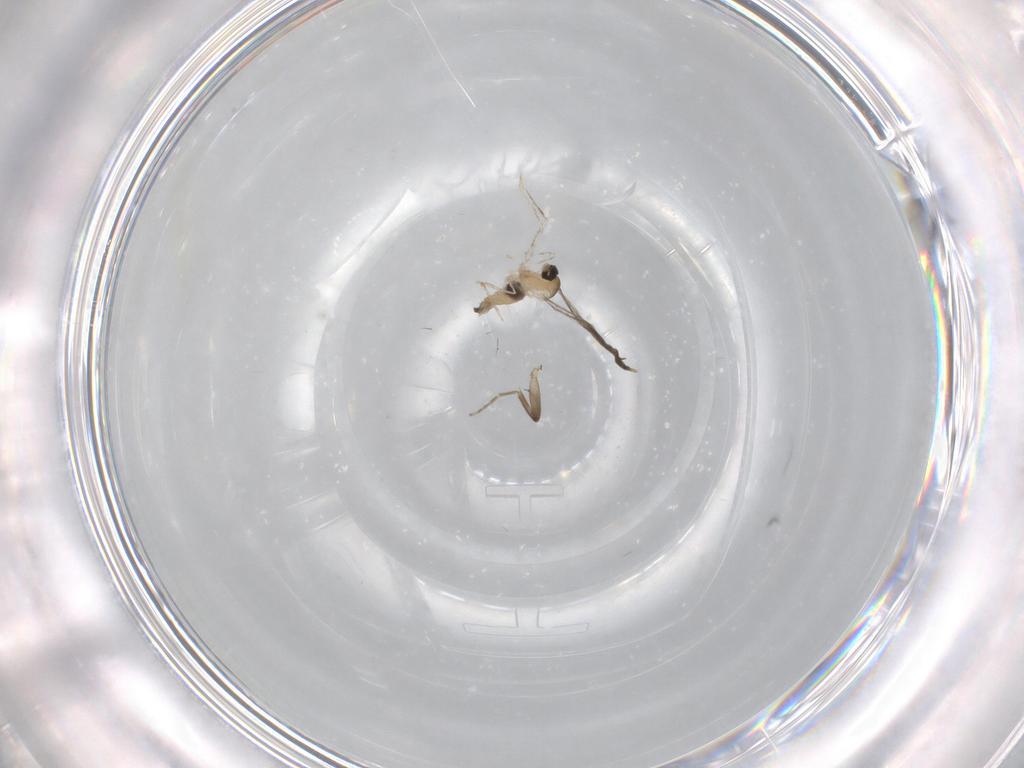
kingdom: Animalia
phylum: Arthropoda
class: Insecta
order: Diptera
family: Cecidomyiidae
